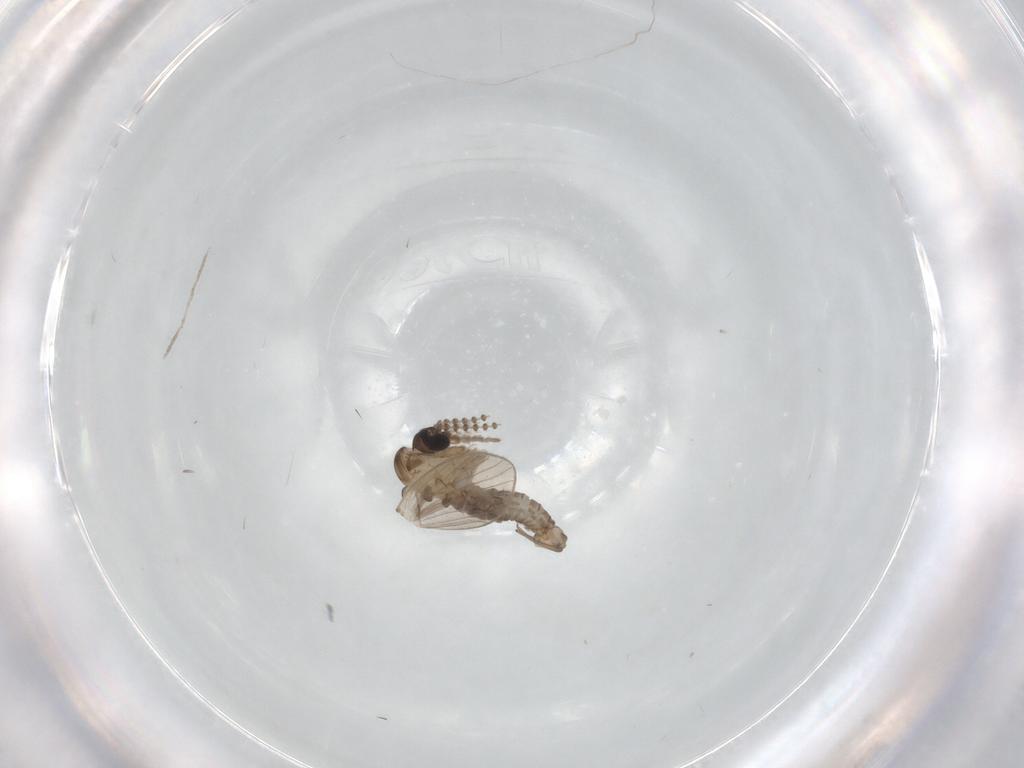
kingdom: Animalia
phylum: Arthropoda
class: Insecta
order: Diptera
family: Psychodidae
